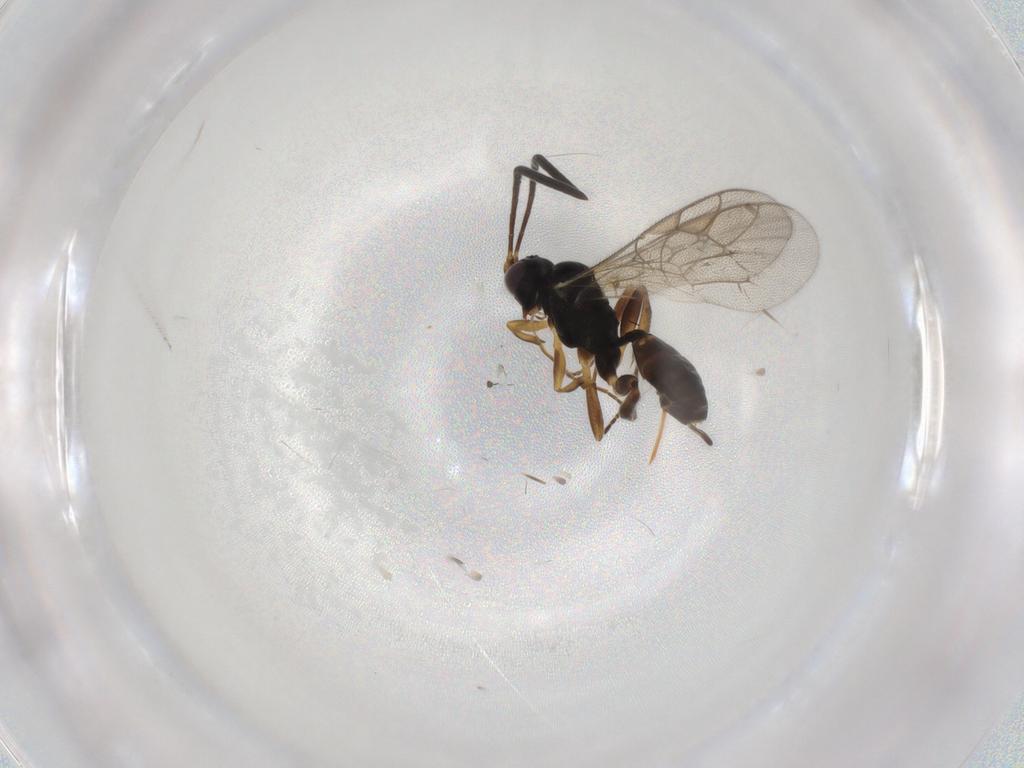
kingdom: Animalia
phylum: Arthropoda
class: Insecta
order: Hymenoptera
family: Ichneumonidae
